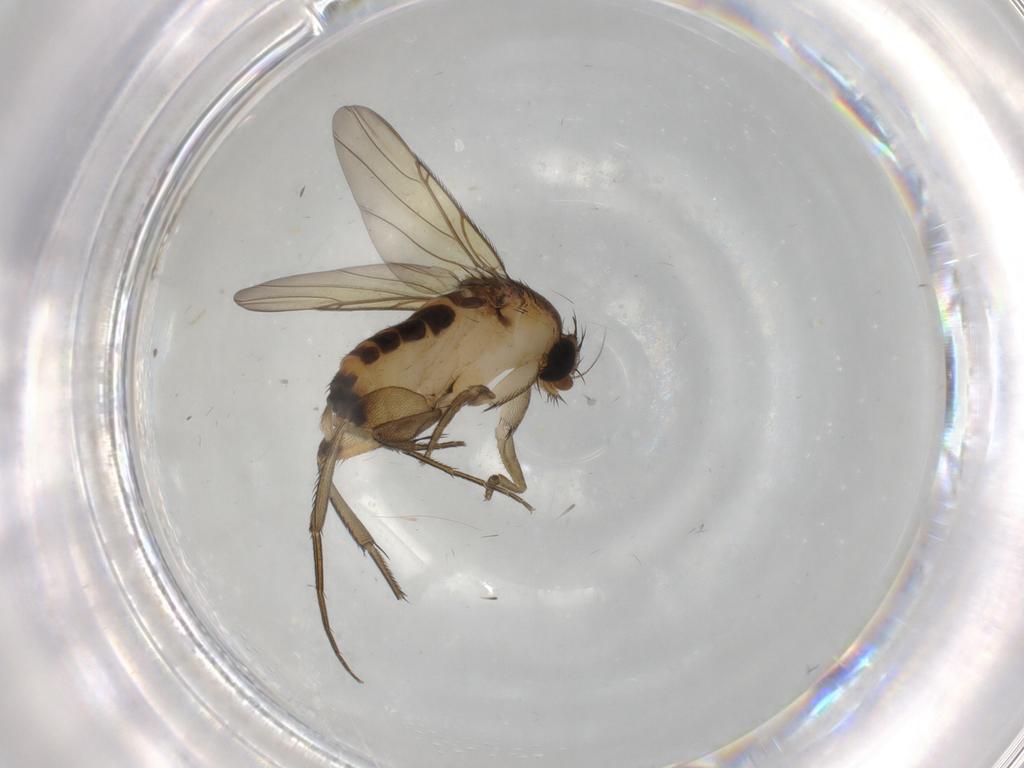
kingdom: Animalia
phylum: Arthropoda
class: Insecta
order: Diptera
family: Phoridae
